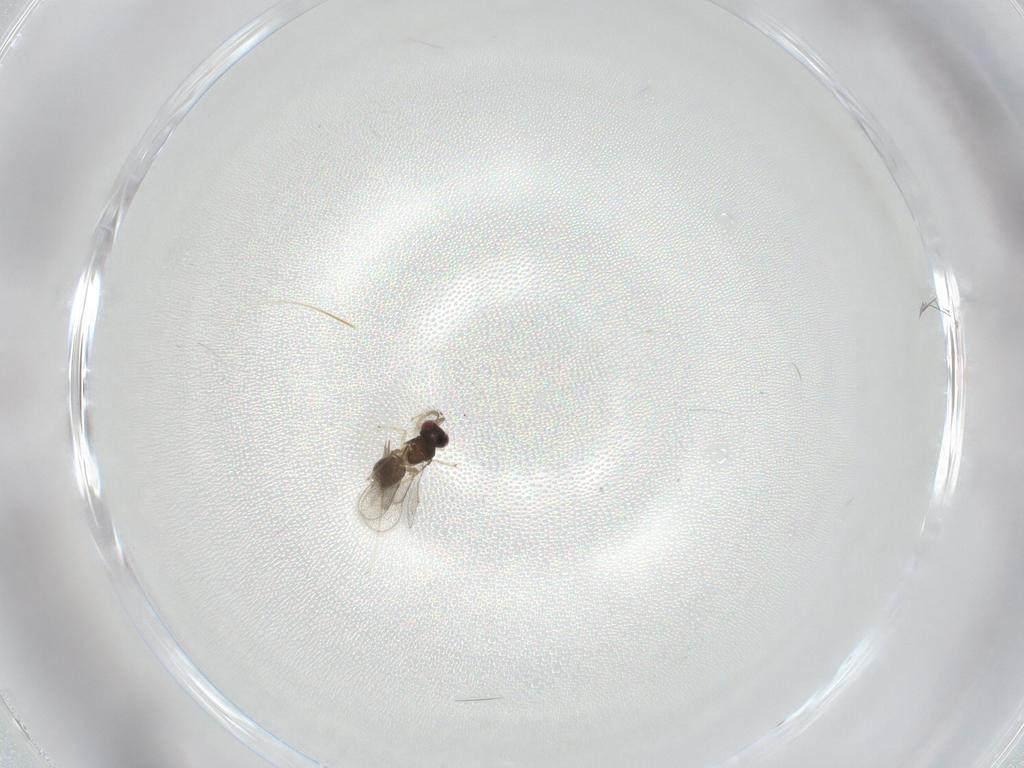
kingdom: Animalia
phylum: Arthropoda
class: Insecta
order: Hymenoptera
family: Eulophidae
